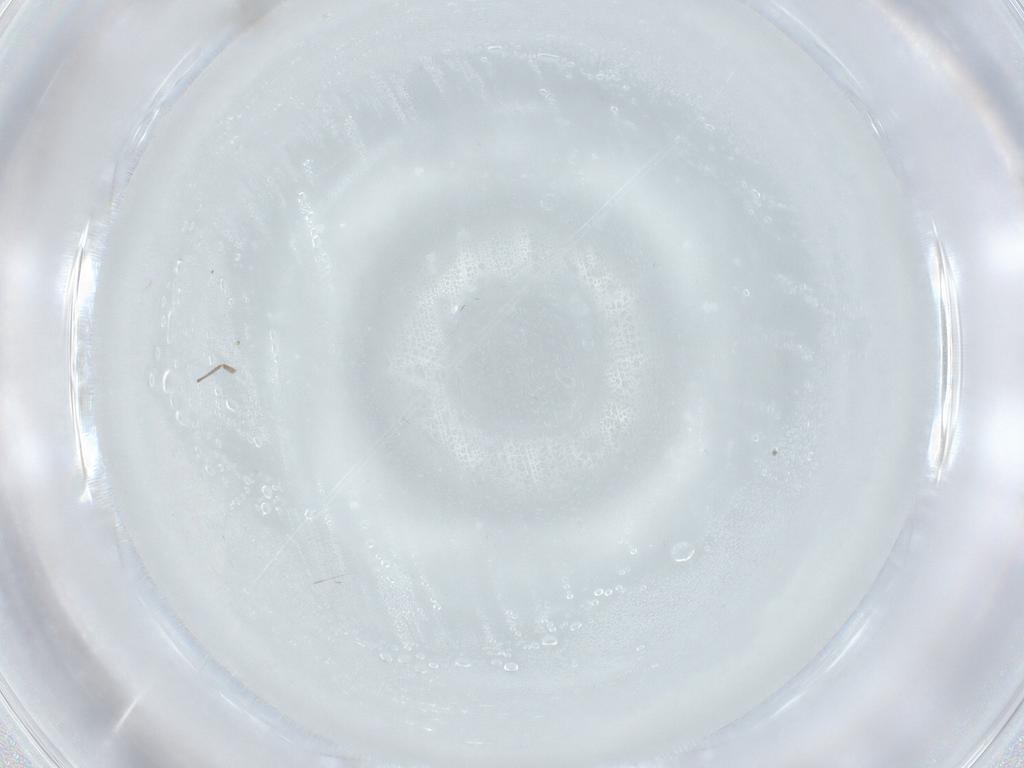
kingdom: Animalia
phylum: Arthropoda
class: Insecta
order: Diptera
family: Chironomidae
